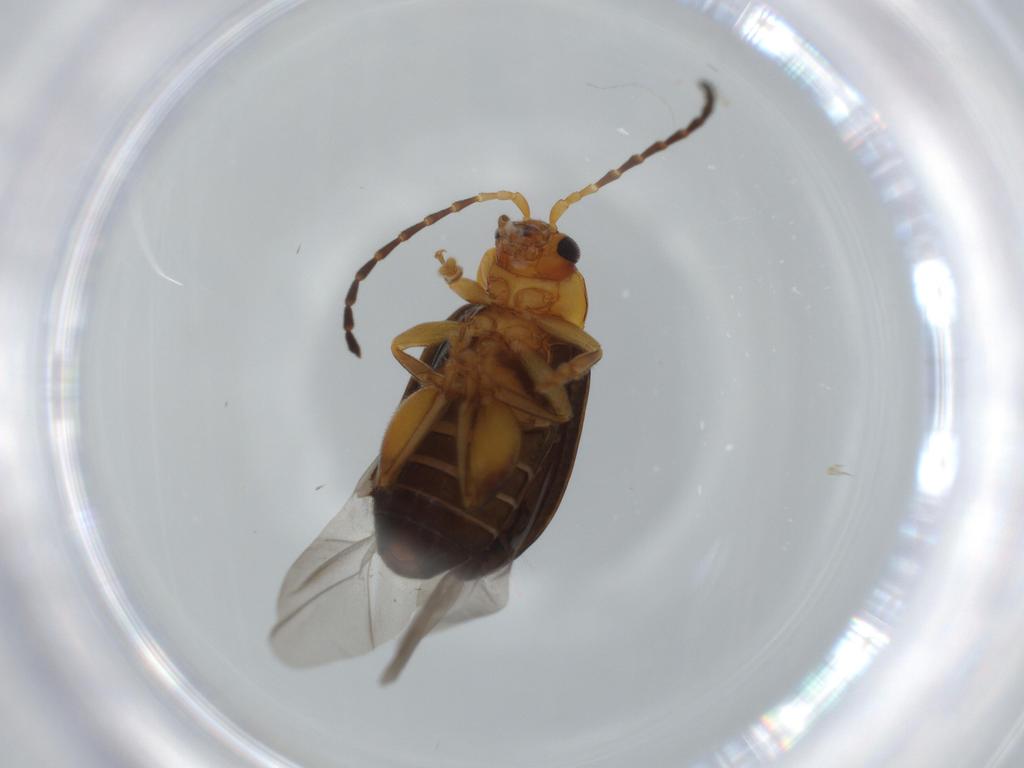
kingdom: Animalia
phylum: Arthropoda
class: Insecta
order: Coleoptera
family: Chrysomelidae
